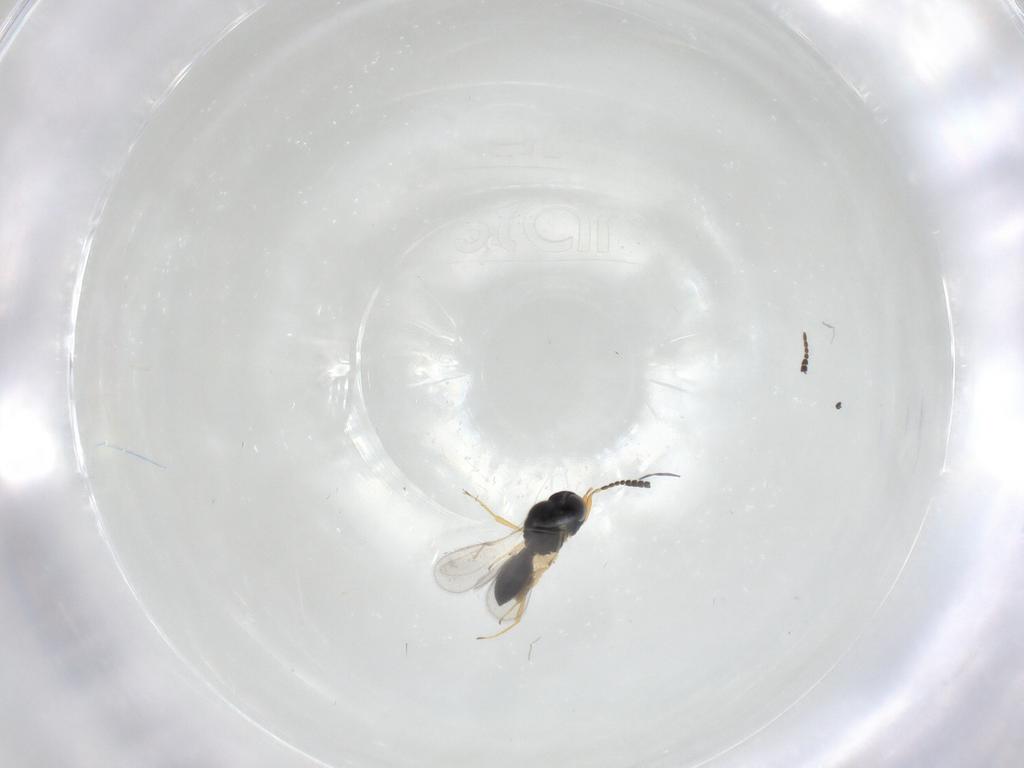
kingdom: Animalia
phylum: Arthropoda
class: Insecta
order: Hymenoptera
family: Scelionidae
